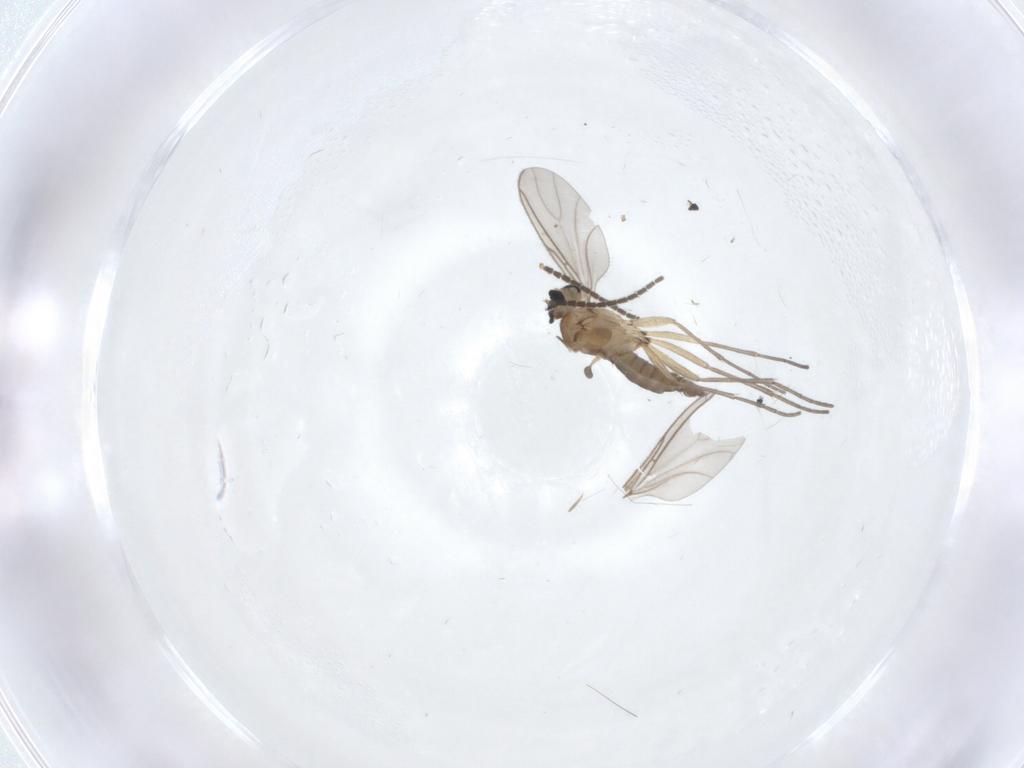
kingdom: Animalia
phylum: Arthropoda
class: Insecta
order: Diptera
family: Sciaridae
